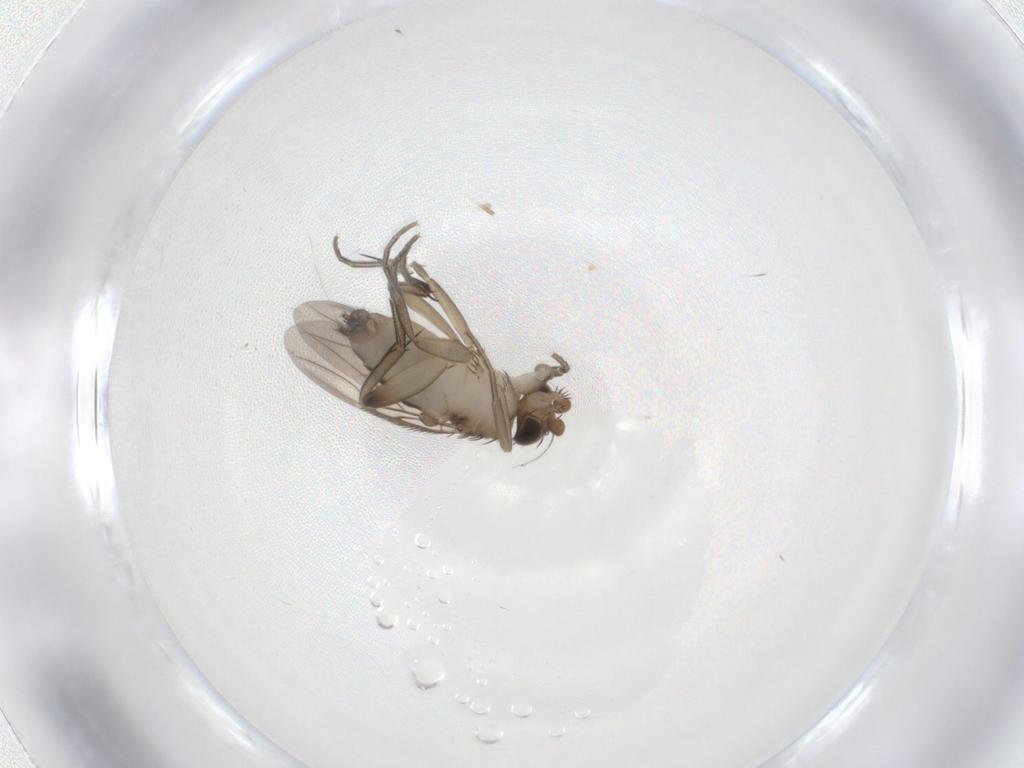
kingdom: Animalia
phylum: Arthropoda
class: Insecta
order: Diptera
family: Phoridae
